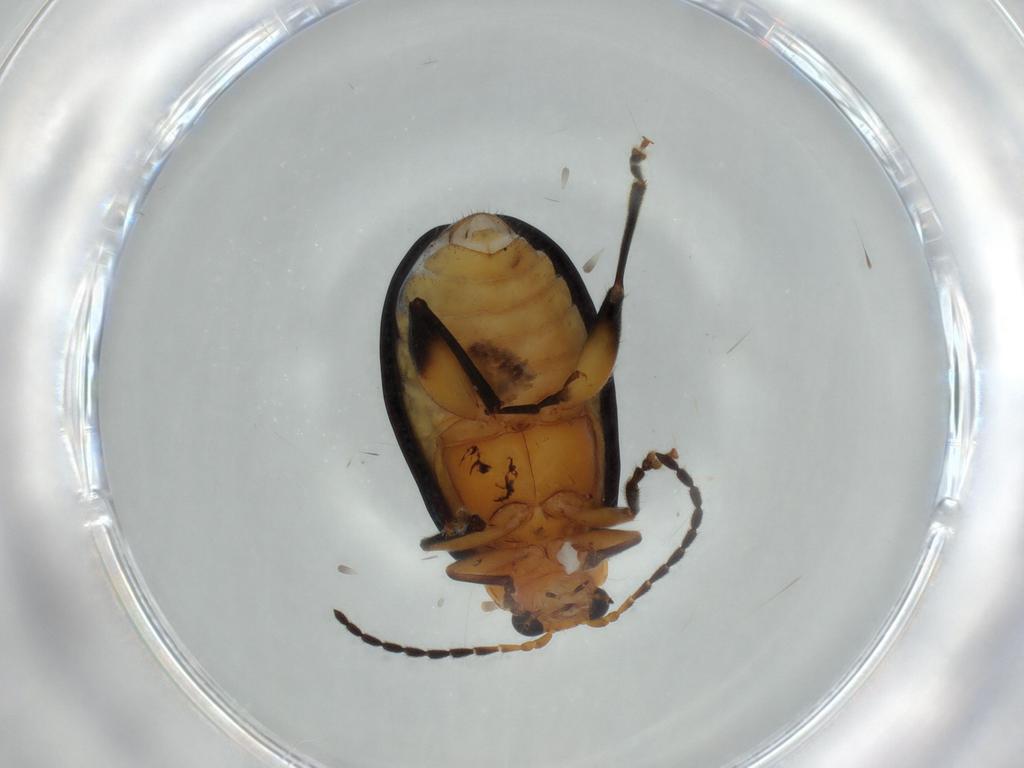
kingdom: Animalia
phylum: Arthropoda
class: Insecta
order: Coleoptera
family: Chrysomelidae
